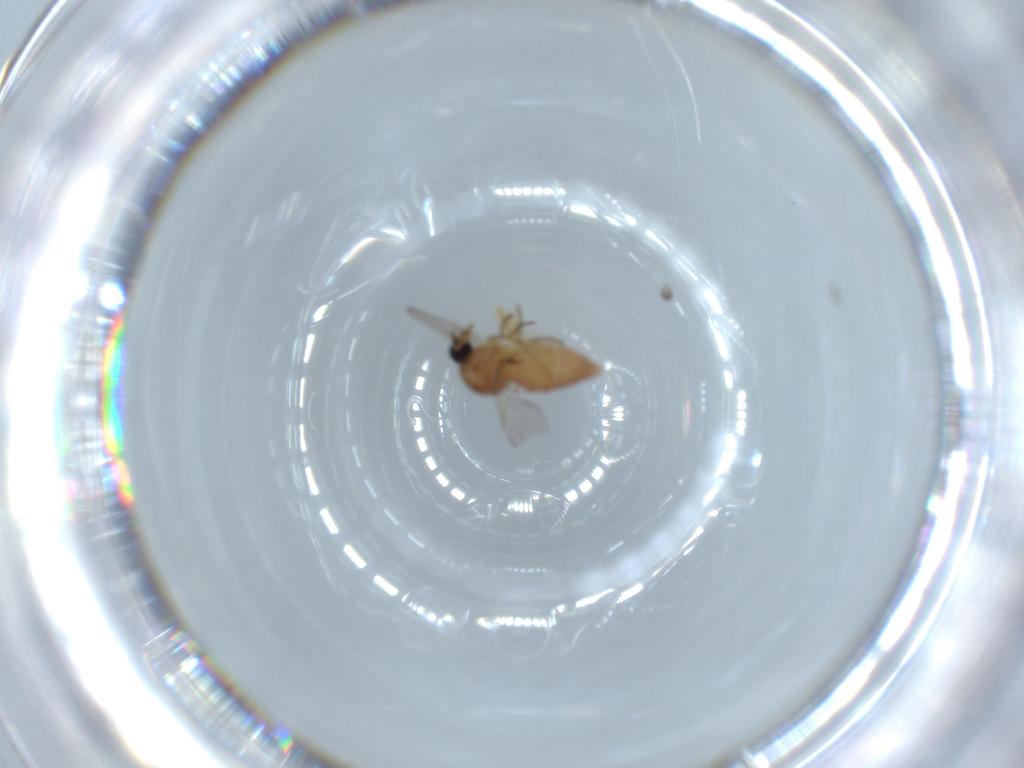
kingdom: Animalia
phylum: Arthropoda
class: Insecta
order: Diptera
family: Ceratopogonidae
